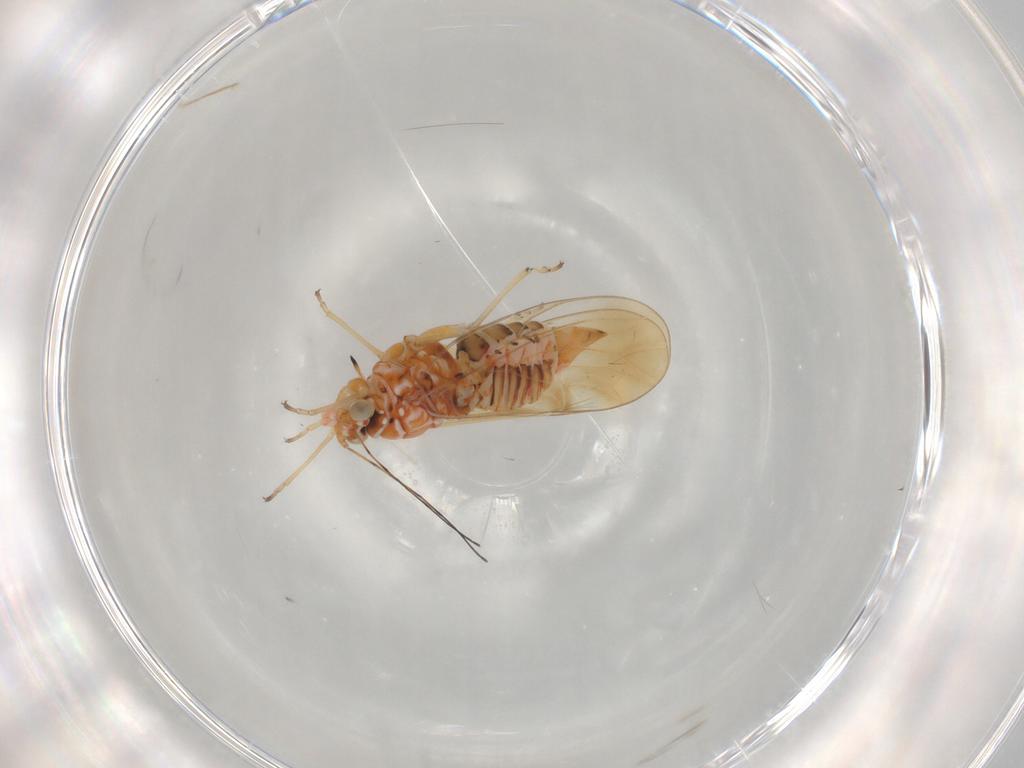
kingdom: Animalia
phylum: Arthropoda
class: Insecta
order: Hemiptera
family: Psyllidae
